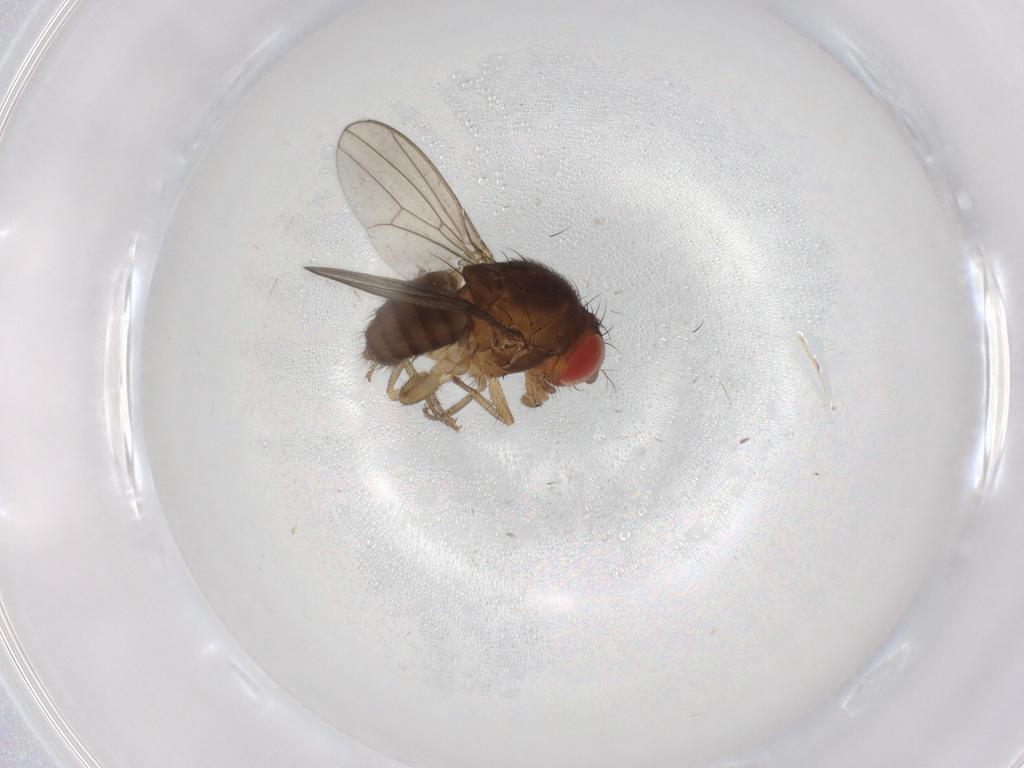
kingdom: Animalia
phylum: Arthropoda
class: Insecta
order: Diptera
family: Drosophilidae
